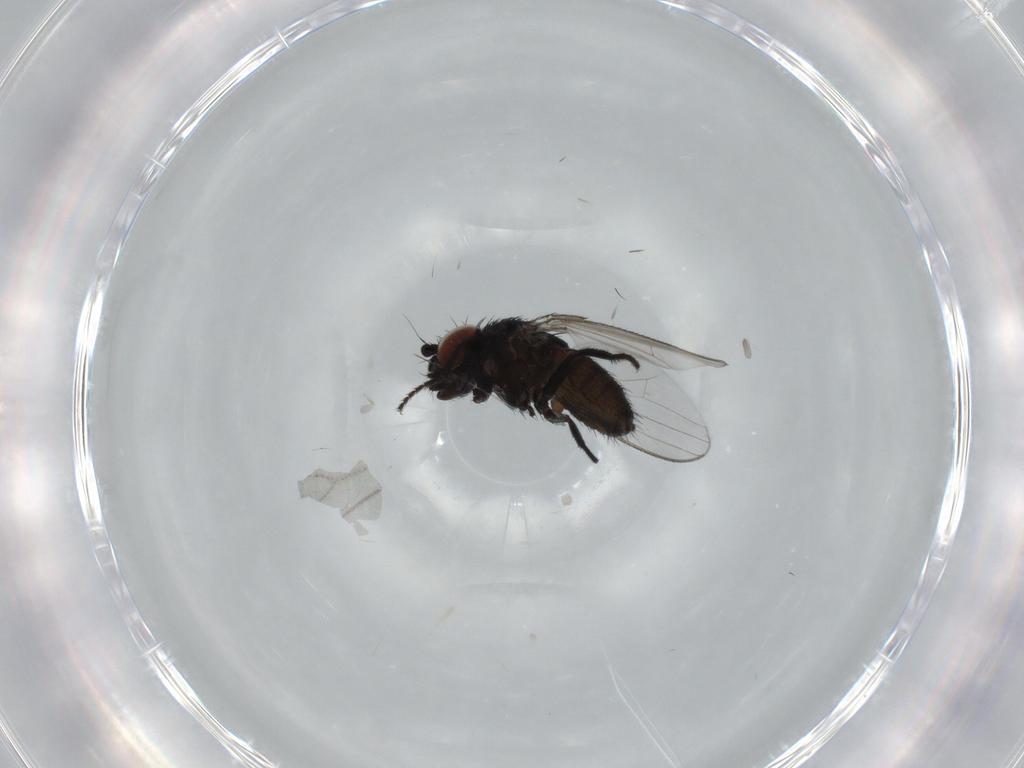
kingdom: Animalia
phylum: Arthropoda
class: Insecta
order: Diptera
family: Milichiidae
